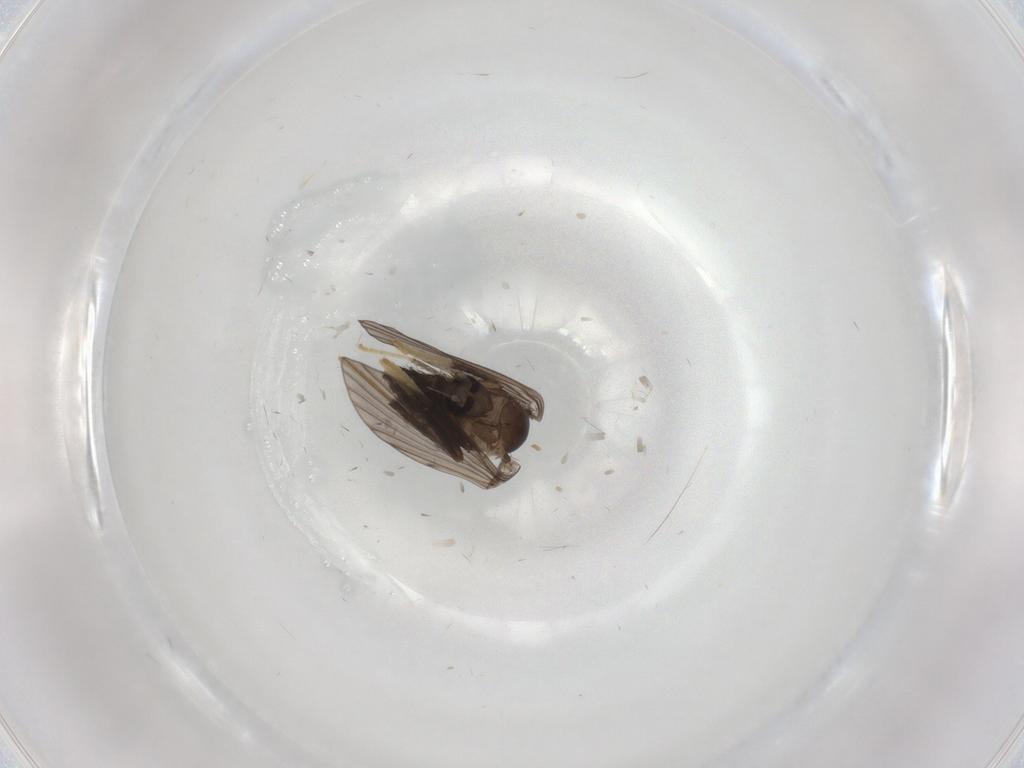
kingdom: Animalia
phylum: Arthropoda
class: Insecta
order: Diptera
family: Psychodidae
